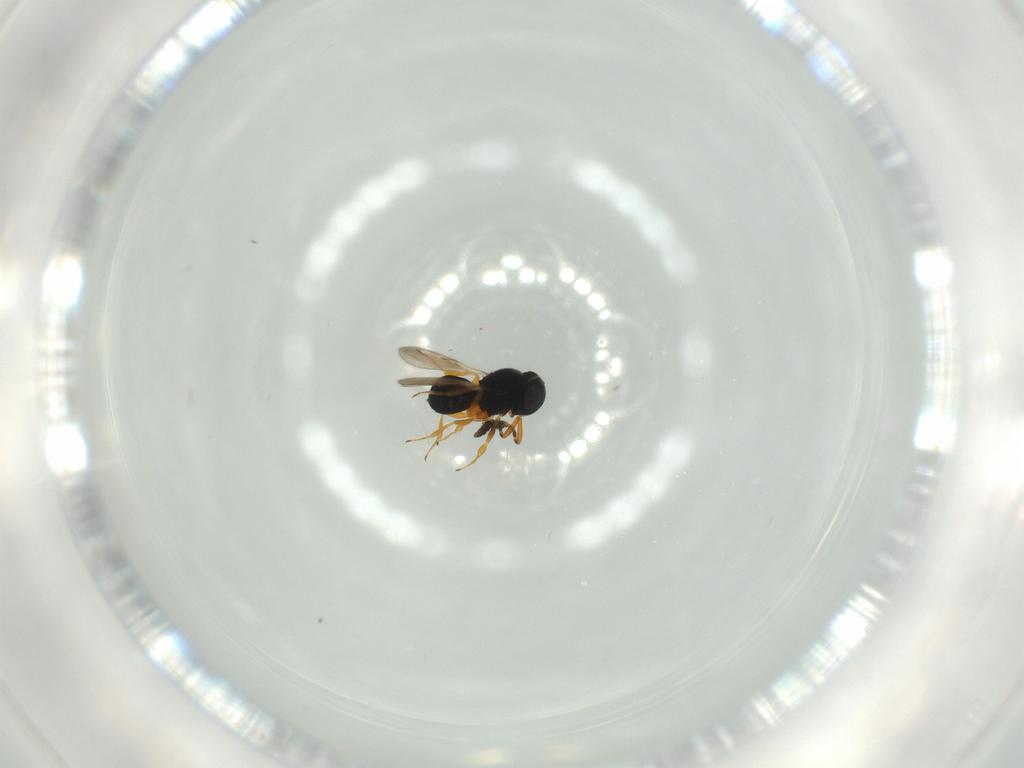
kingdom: Animalia
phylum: Arthropoda
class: Insecta
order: Hymenoptera
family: Scelionidae
